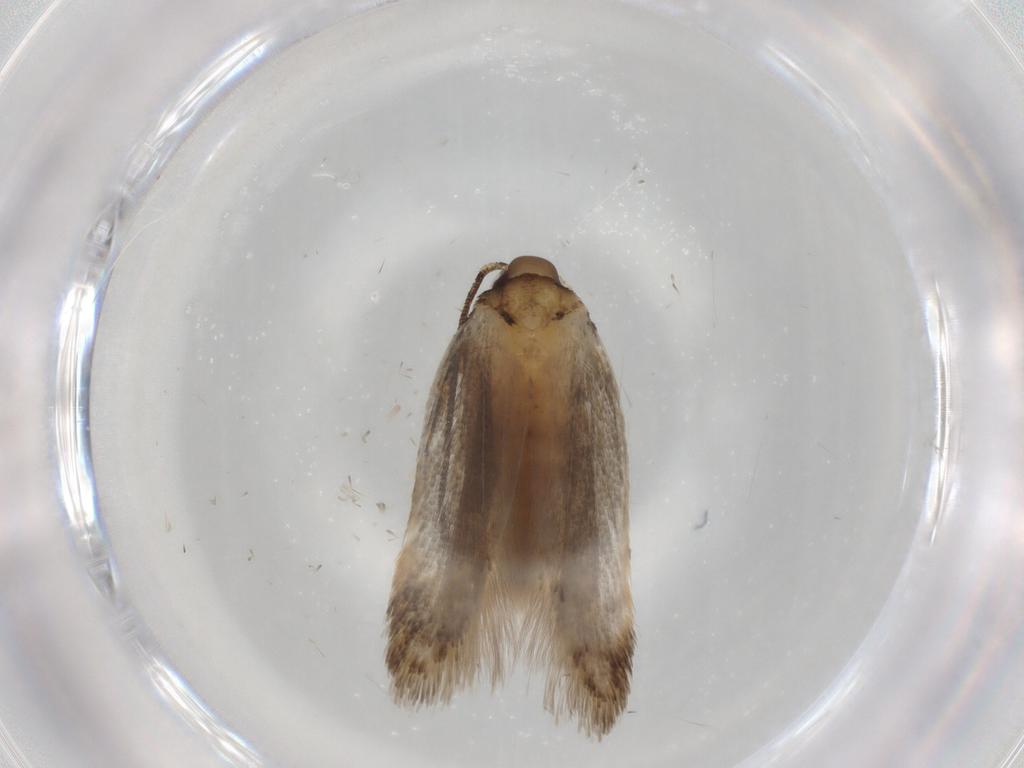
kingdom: Animalia
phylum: Arthropoda
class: Insecta
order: Lepidoptera
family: Autostichidae
